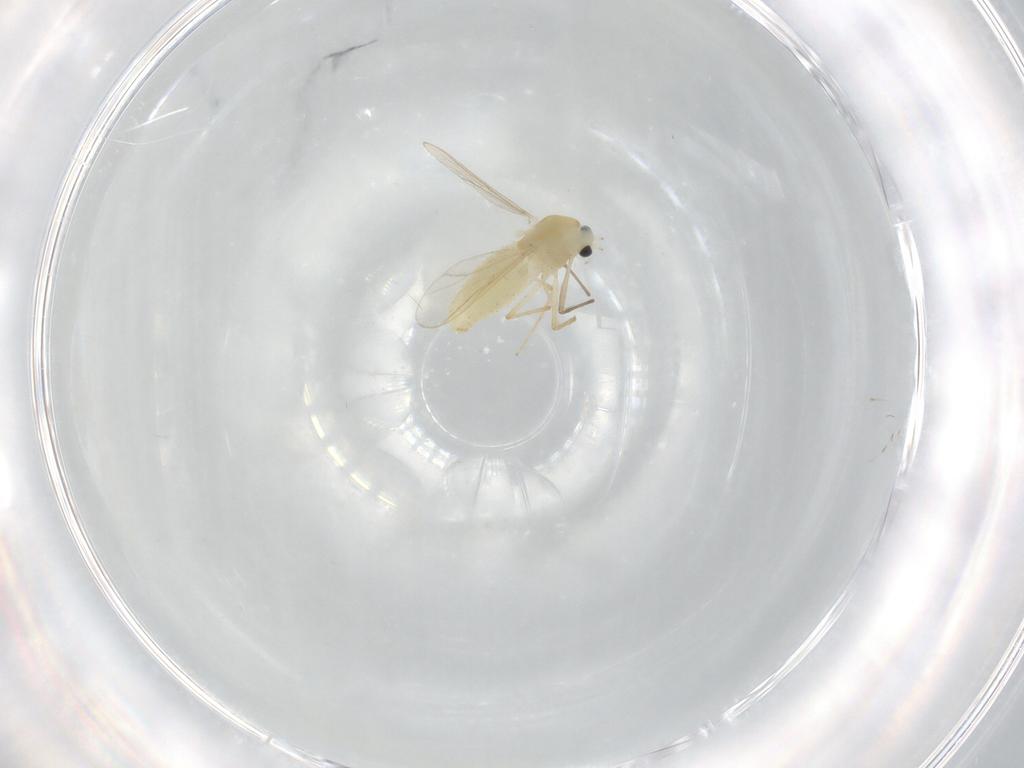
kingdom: Animalia
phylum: Arthropoda
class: Insecta
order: Diptera
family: Chironomidae
